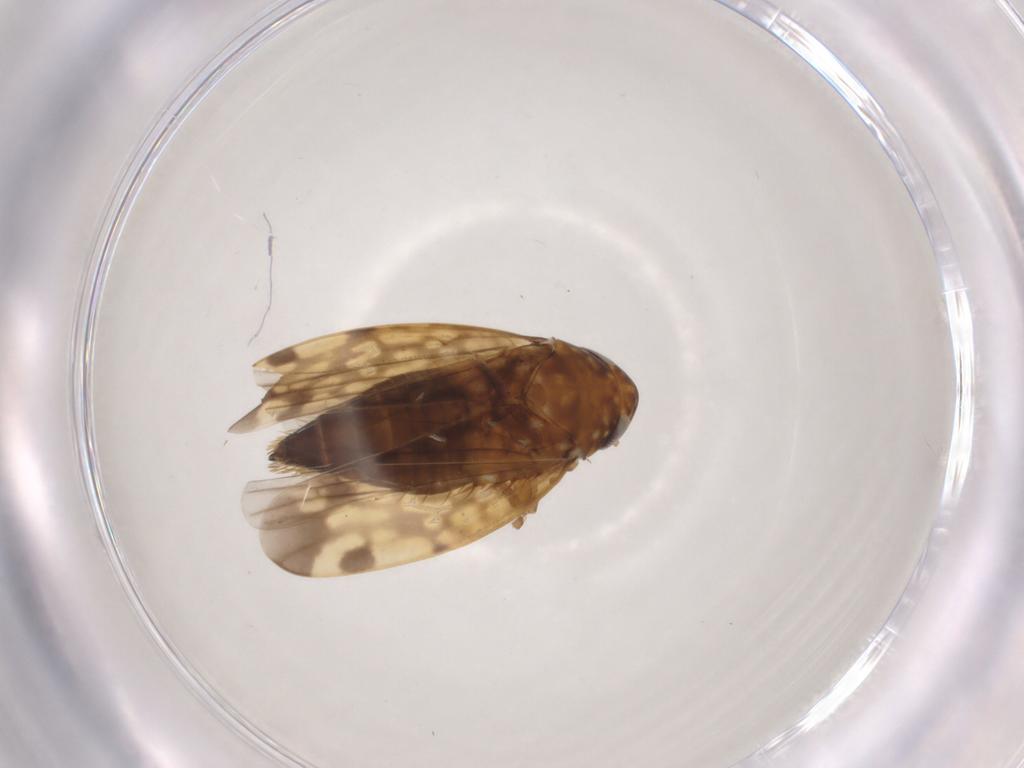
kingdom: Animalia
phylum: Arthropoda
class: Insecta
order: Hemiptera
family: Cicadellidae
